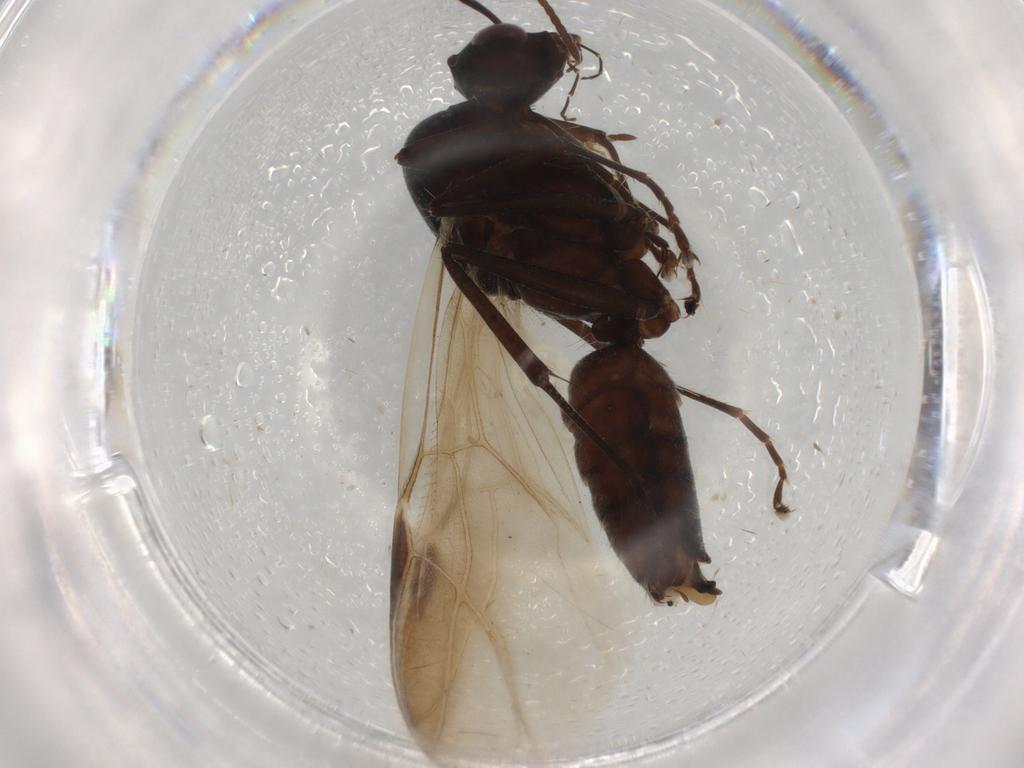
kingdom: Animalia
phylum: Arthropoda
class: Insecta
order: Hymenoptera
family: Formicidae
